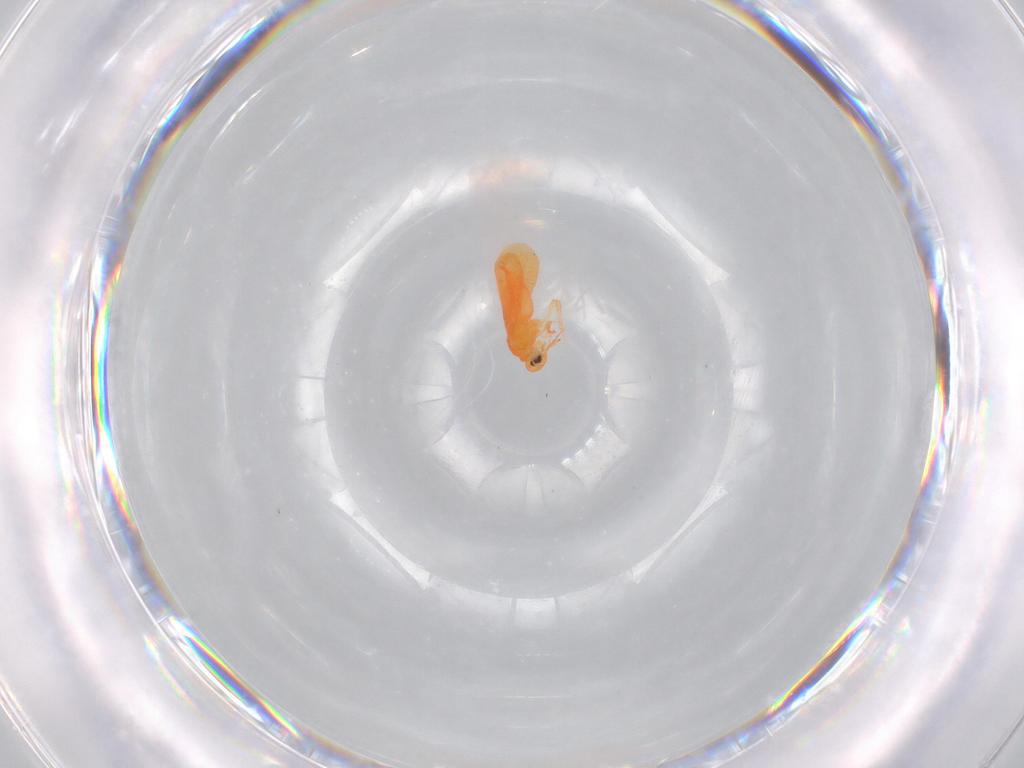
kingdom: Animalia
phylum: Arthropoda
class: Insecta
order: Hemiptera
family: Aleyrodidae
